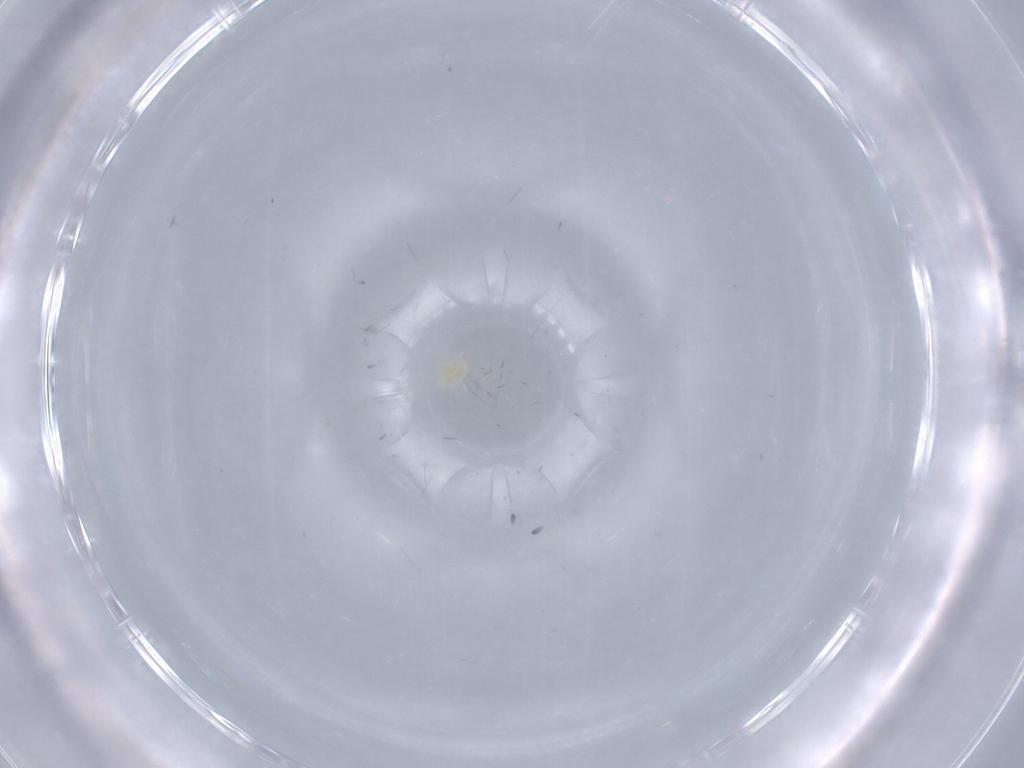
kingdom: Animalia
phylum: Arthropoda
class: Arachnida
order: Trombidiformes
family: Tydeidae
